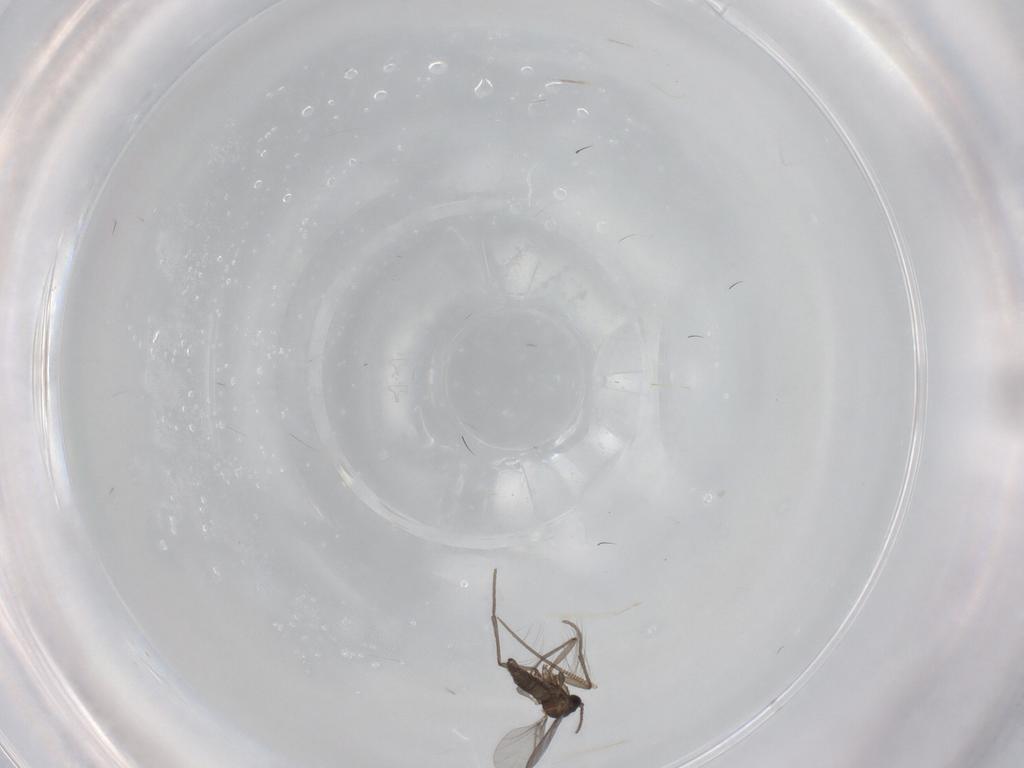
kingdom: Animalia
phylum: Arthropoda
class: Insecta
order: Diptera
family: Sciaridae
